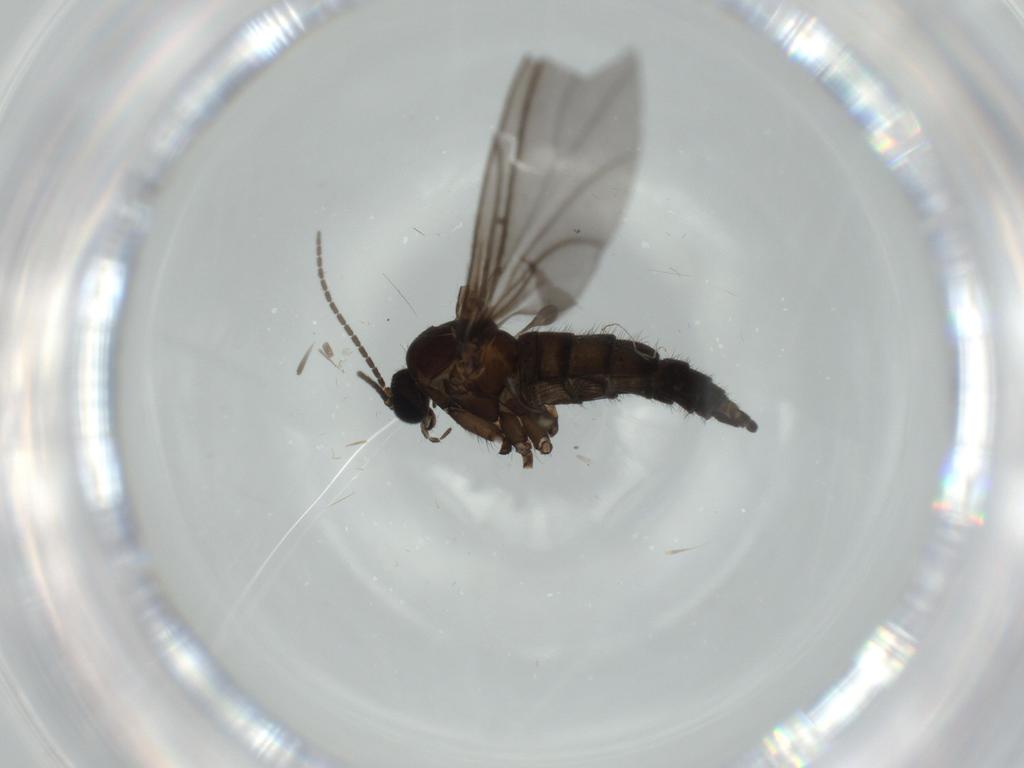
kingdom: Animalia
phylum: Arthropoda
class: Insecta
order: Diptera
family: Sciaridae
